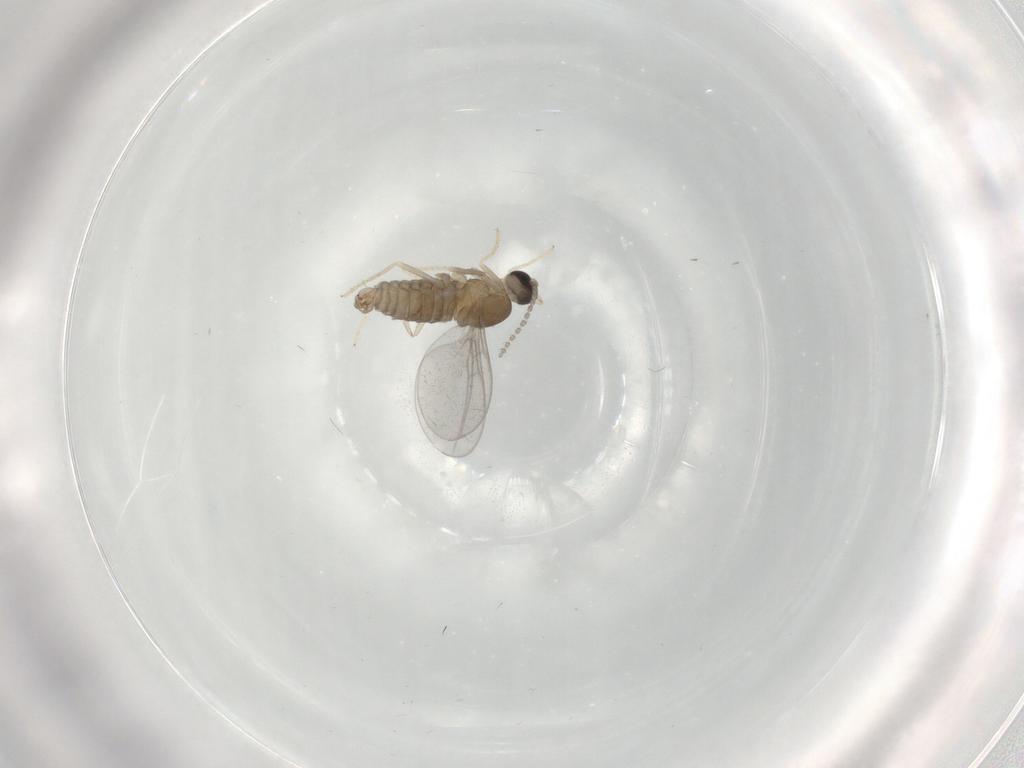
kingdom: Animalia
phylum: Arthropoda
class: Insecta
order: Diptera
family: Cecidomyiidae
